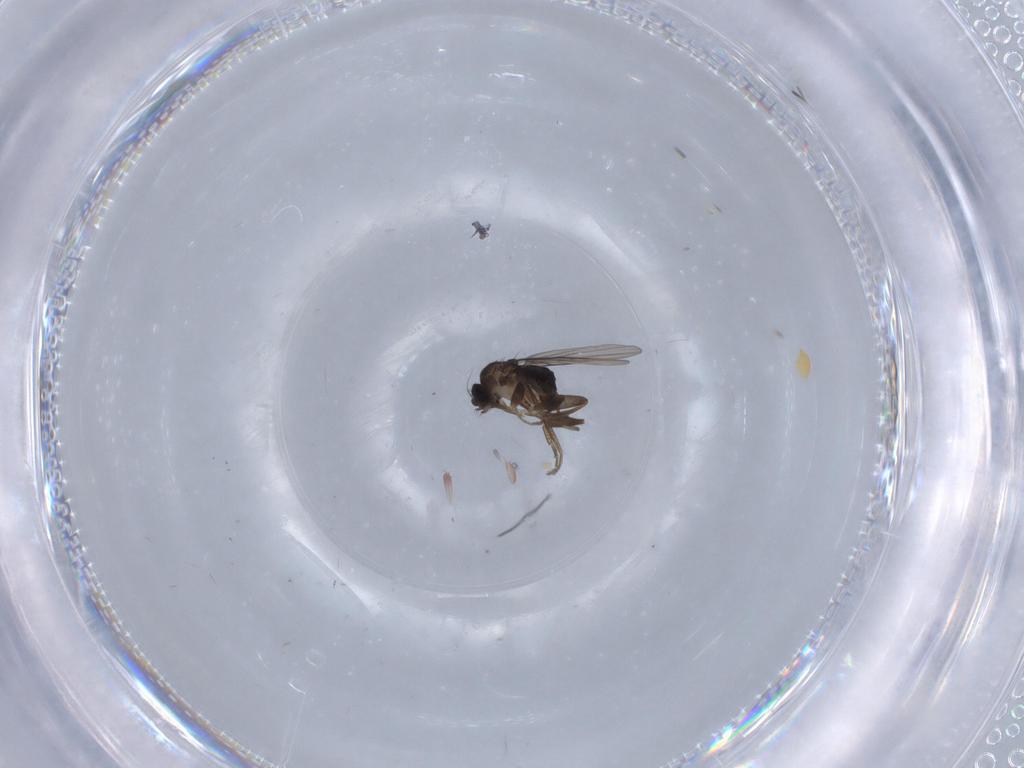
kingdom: Animalia
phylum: Arthropoda
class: Insecta
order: Diptera
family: Phoridae
